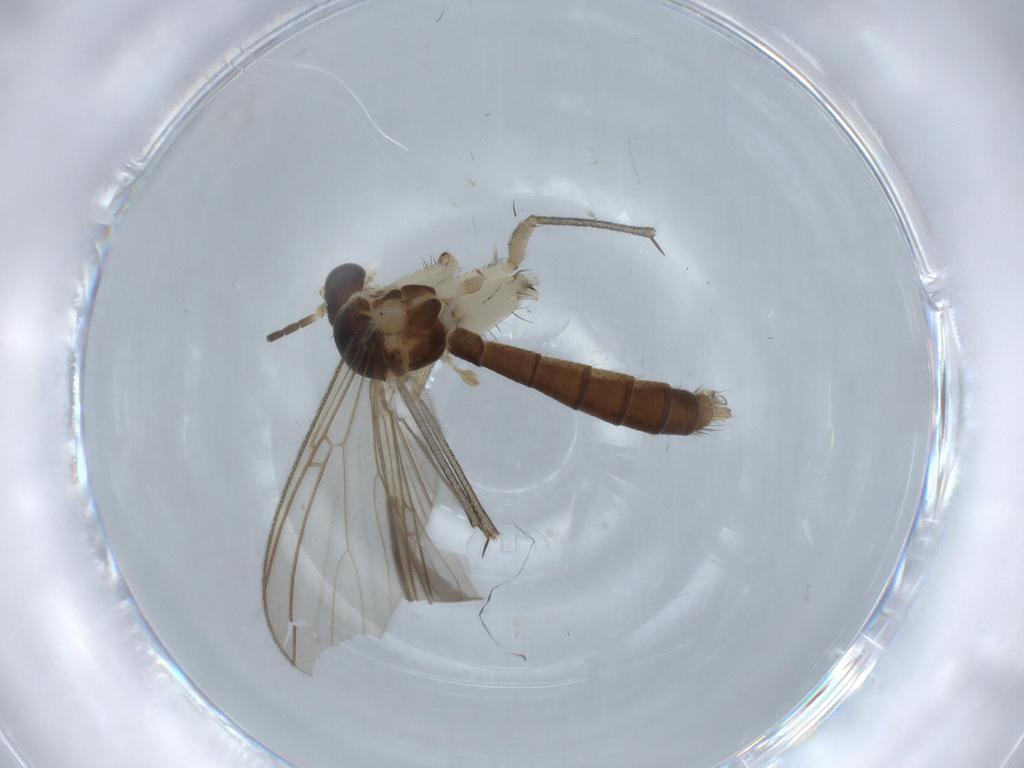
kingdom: Animalia
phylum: Arthropoda
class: Insecta
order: Diptera
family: Mycetophilidae
